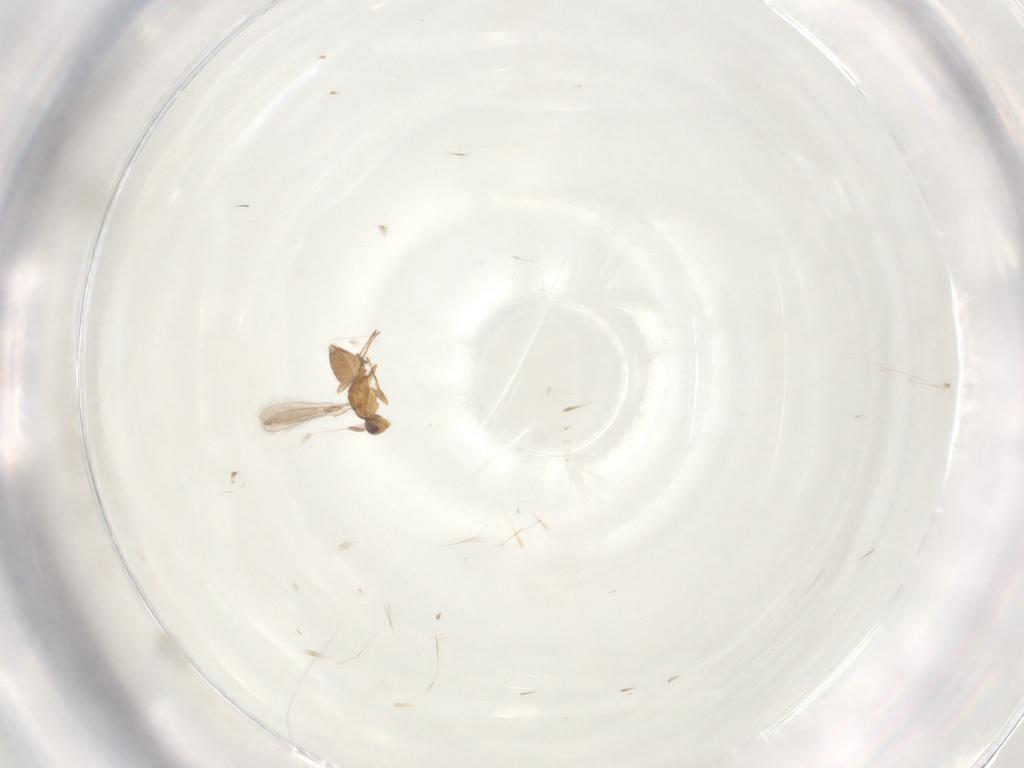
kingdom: Animalia
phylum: Arthropoda
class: Insecta
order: Hymenoptera
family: Mymaridae
